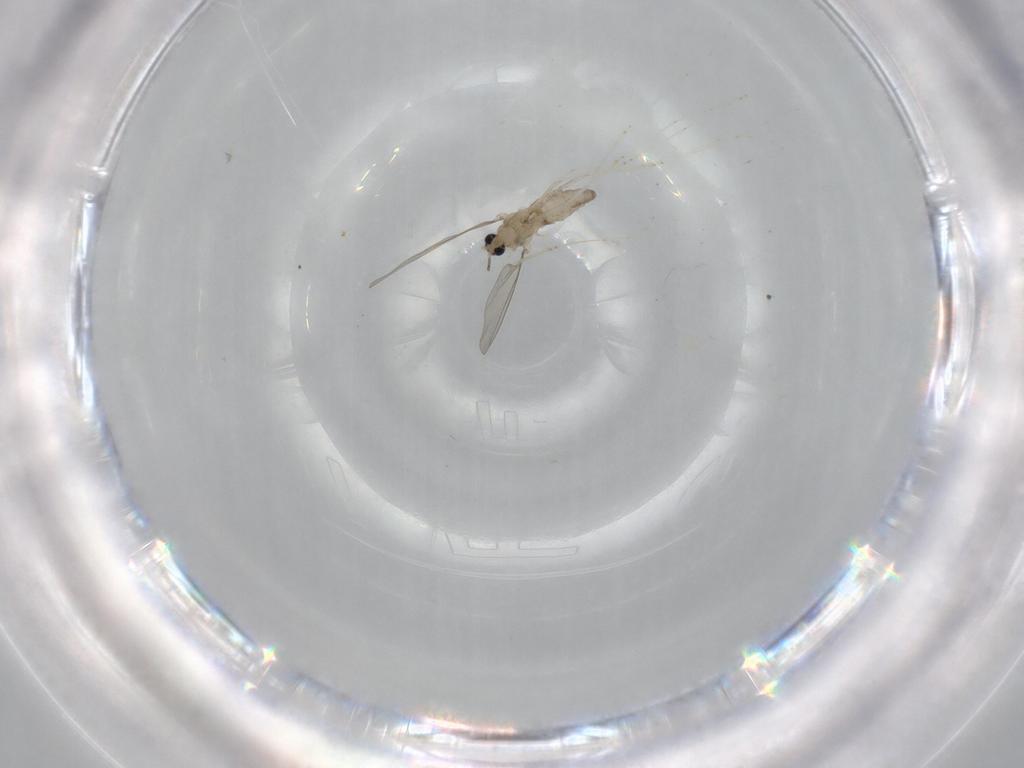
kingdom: Animalia
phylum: Arthropoda
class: Insecta
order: Diptera
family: Cecidomyiidae
